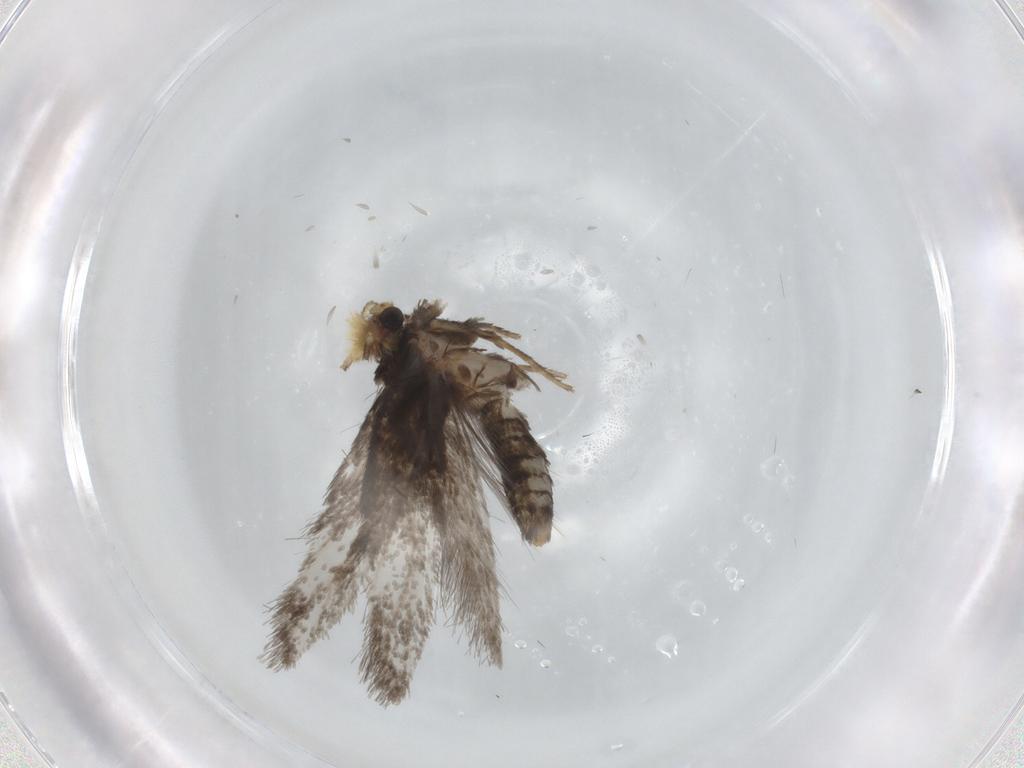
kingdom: Animalia
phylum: Arthropoda
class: Insecta
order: Lepidoptera
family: Nepticulidae
